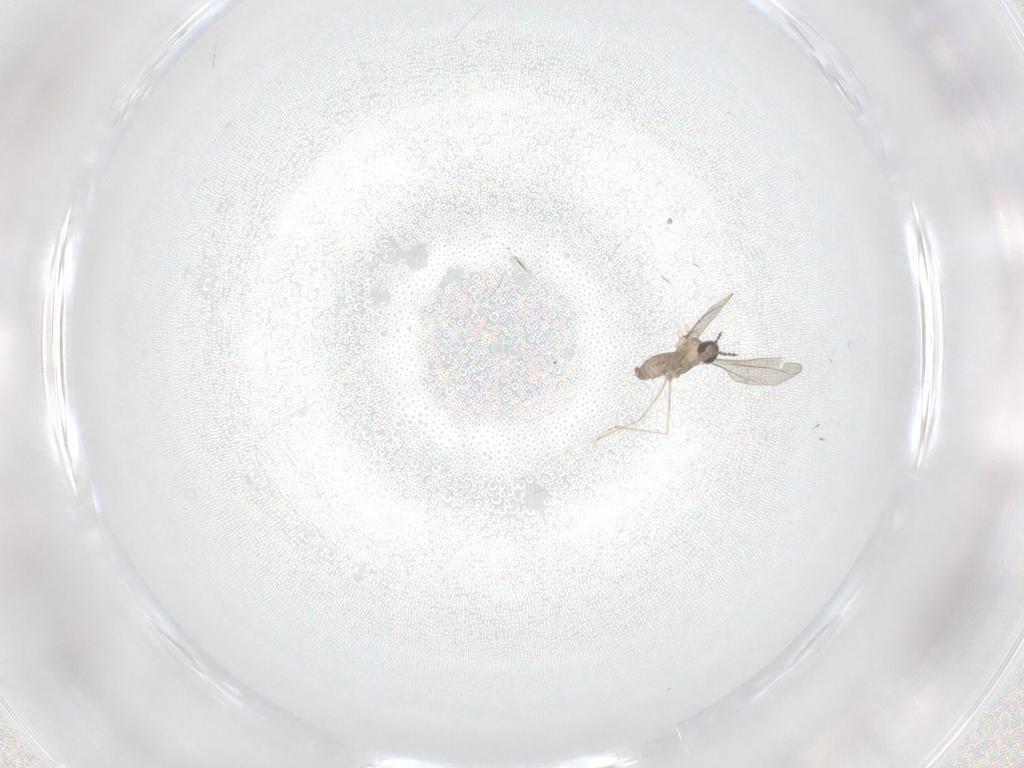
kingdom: Animalia
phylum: Arthropoda
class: Insecta
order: Diptera
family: Cecidomyiidae
